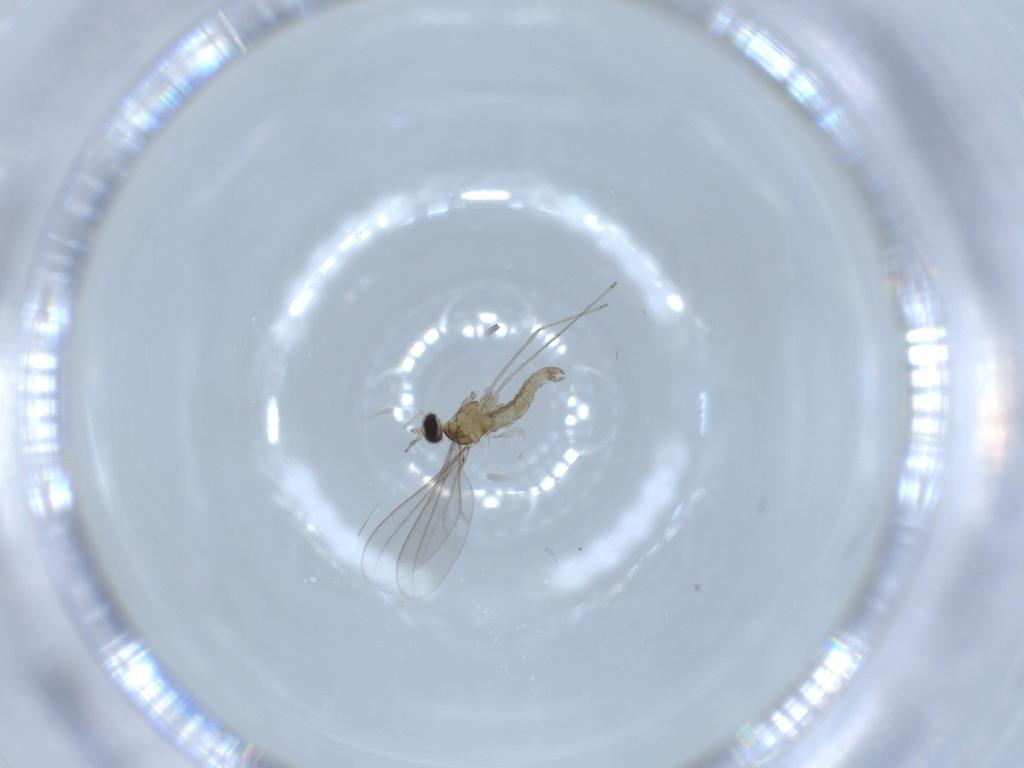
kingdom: Animalia
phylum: Arthropoda
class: Insecta
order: Diptera
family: Cecidomyiidae
